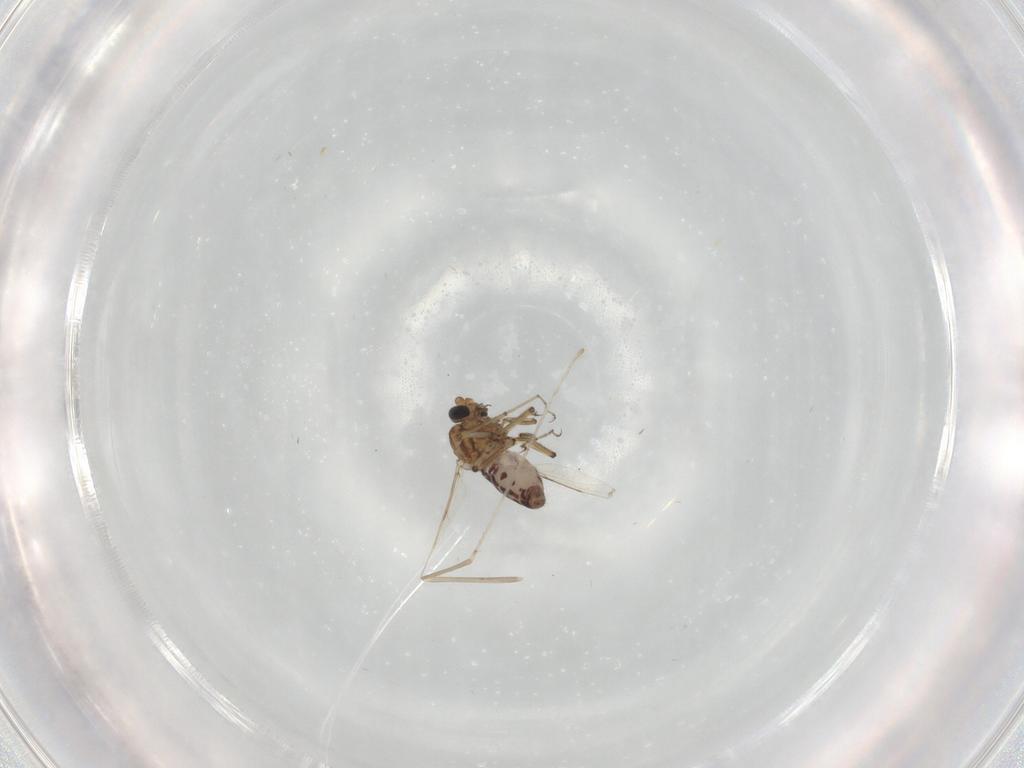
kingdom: Animalia
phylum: Arthropoda
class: Insecta
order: Diptera
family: Ceratopogonidae
